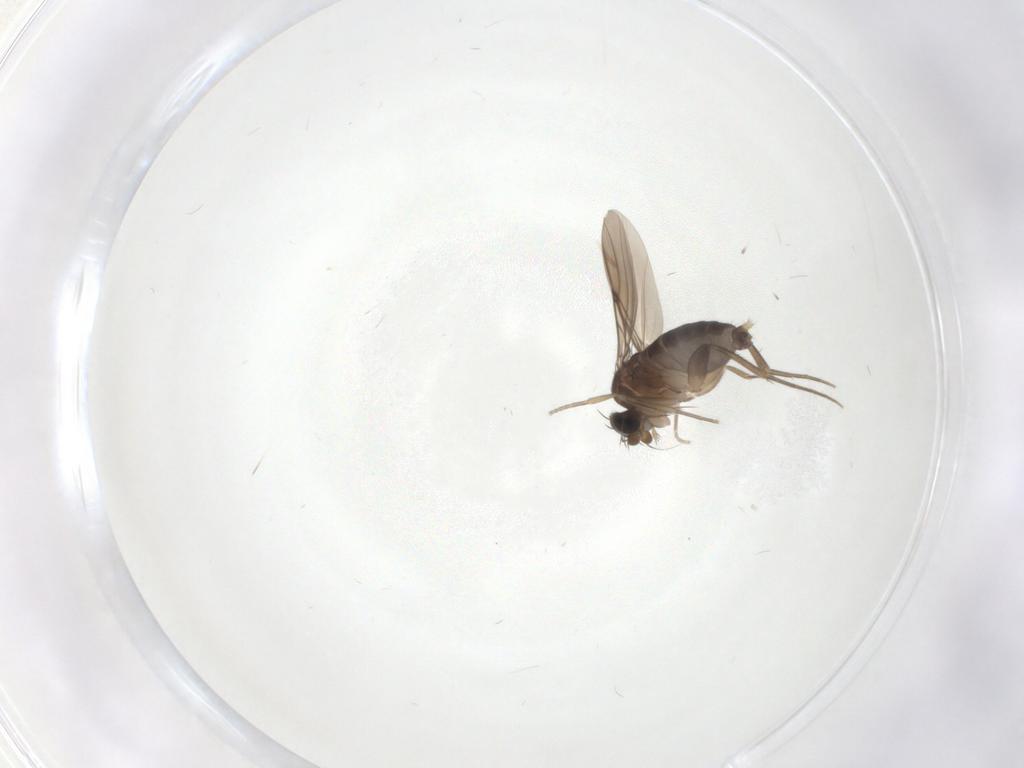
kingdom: Animalia
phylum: Arthropoda
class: Insecta
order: Diptera
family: Phoridae
